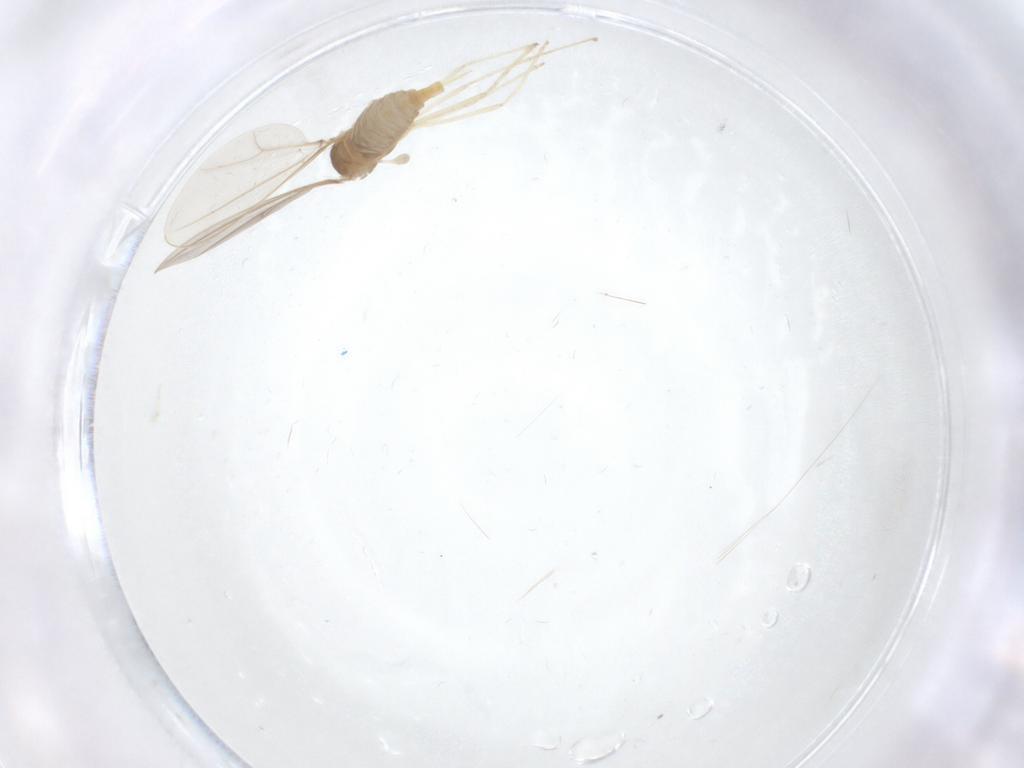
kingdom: Animalia
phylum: Arthropoda
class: Insecta
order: Diptera
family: Cecidomyiidae
